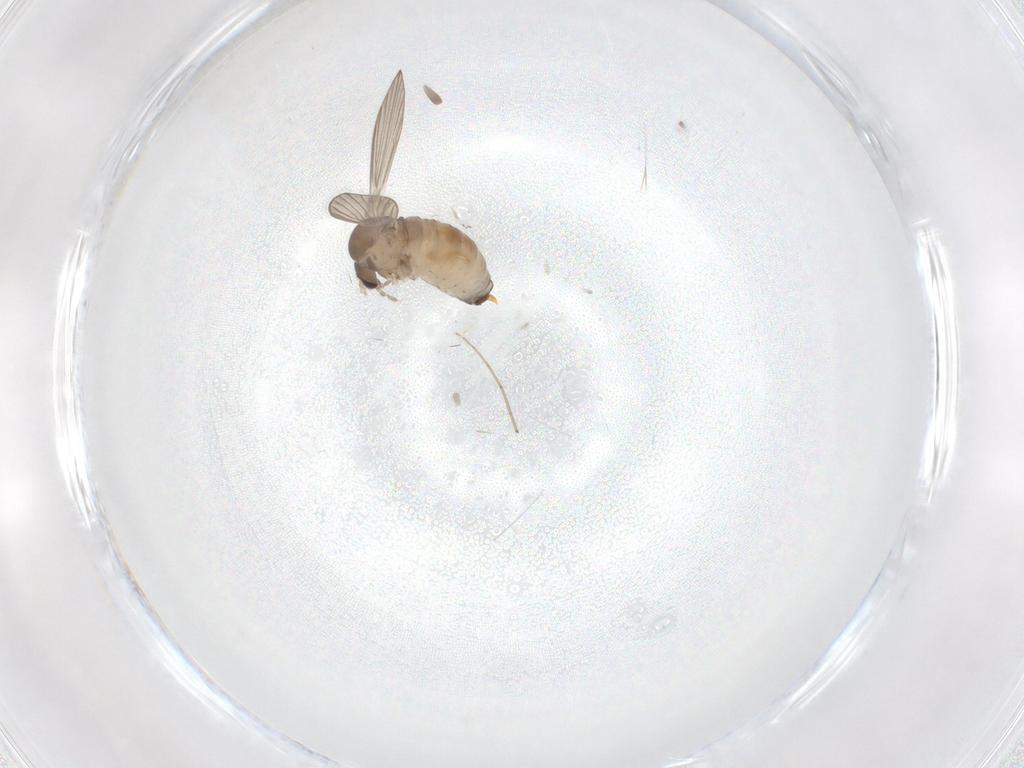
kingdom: Animalia
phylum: Arthropoda
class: Insecta
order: Diptera
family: Psychodidae
